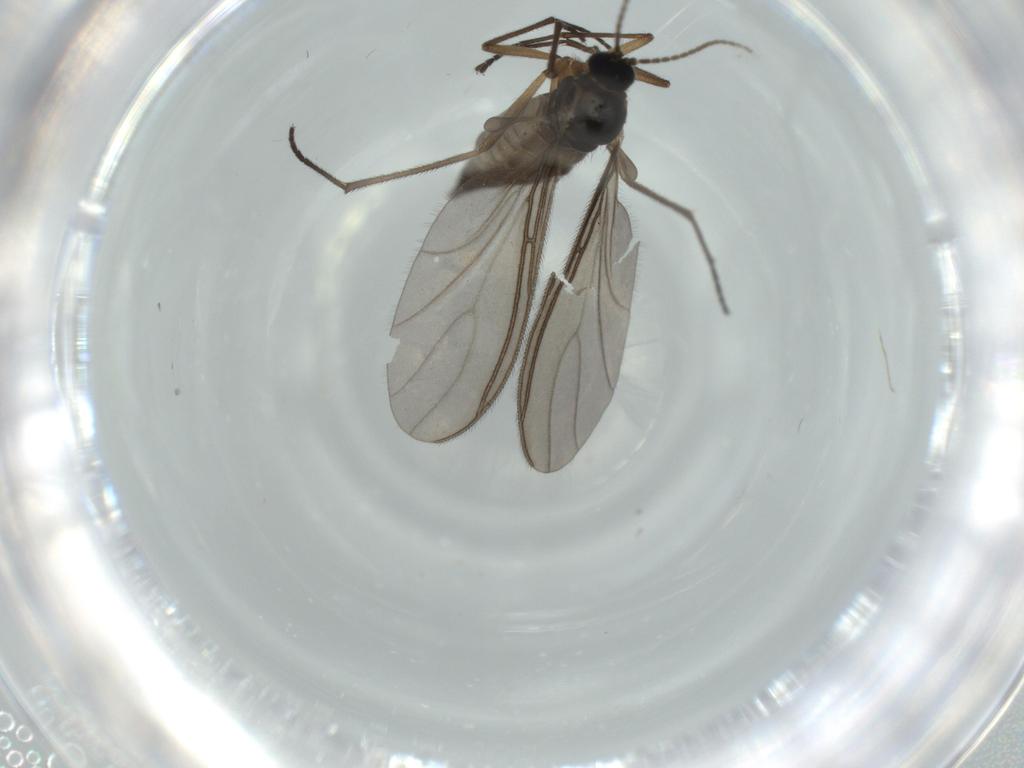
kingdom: Animalia
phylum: Arthropoda
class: Insecta
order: Diptera
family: Sciaridae
